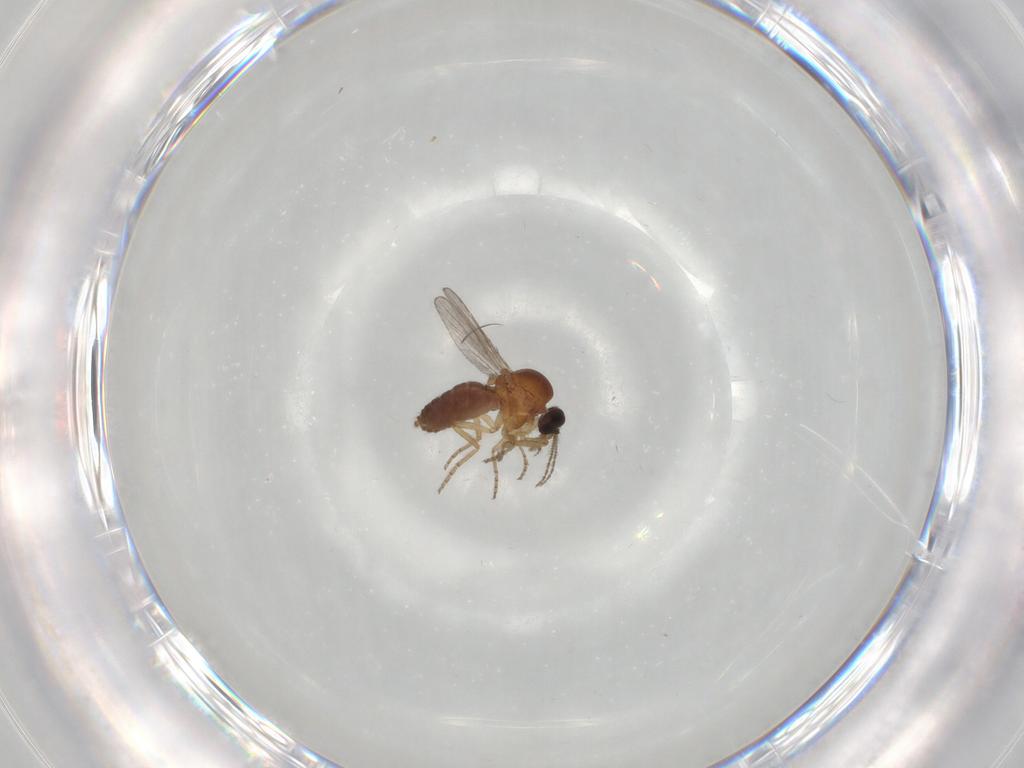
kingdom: Animalia
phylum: Arthropoda
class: Insecta
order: Diptera
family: Ceratopogonidae
